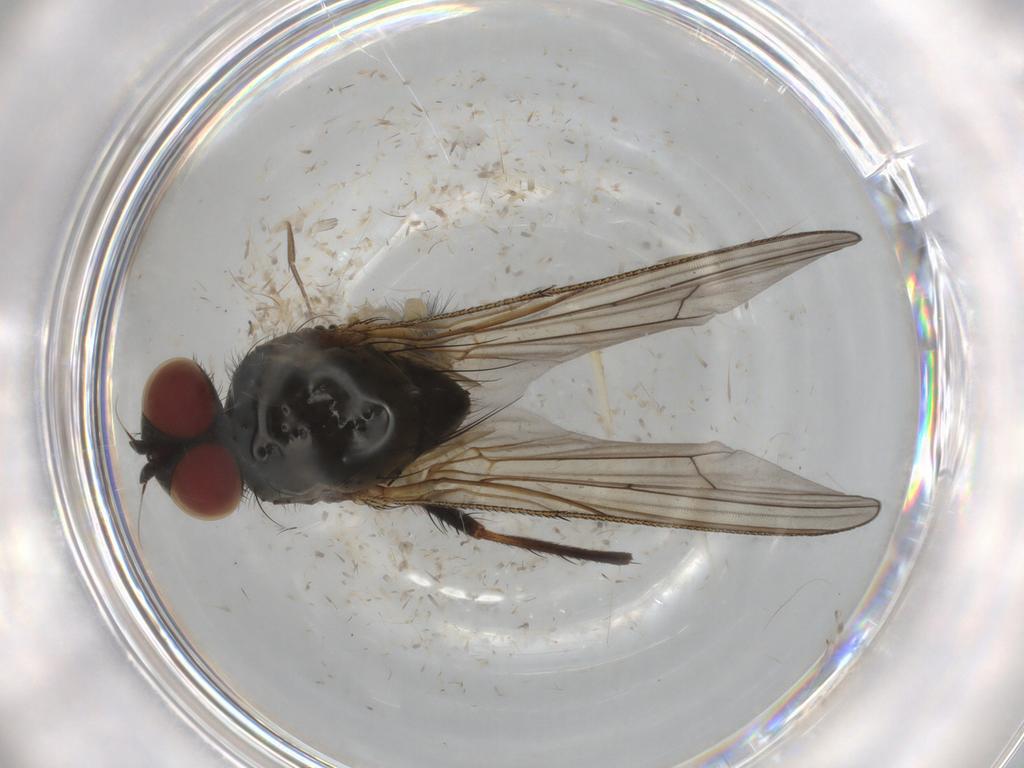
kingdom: Animalia
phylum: Arthropoda
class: Insecta
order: Diptera
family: Anthomyiidae
